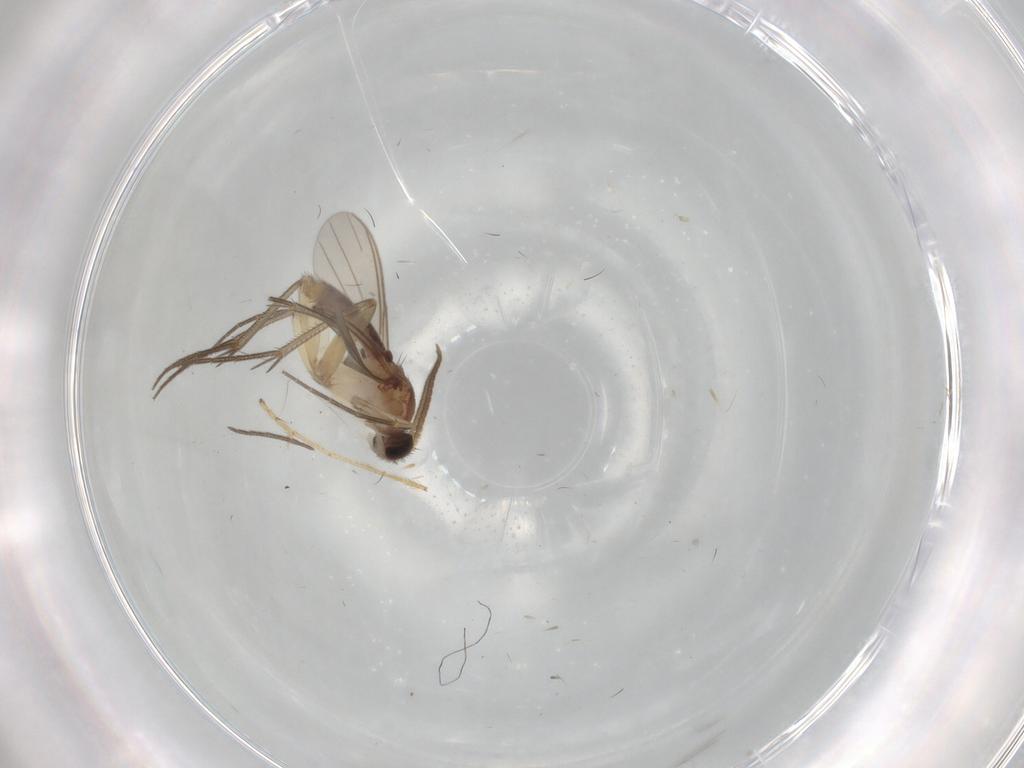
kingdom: Animalia
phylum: Arthropoda
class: Insecta
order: Diptera
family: Mycetophilidae
